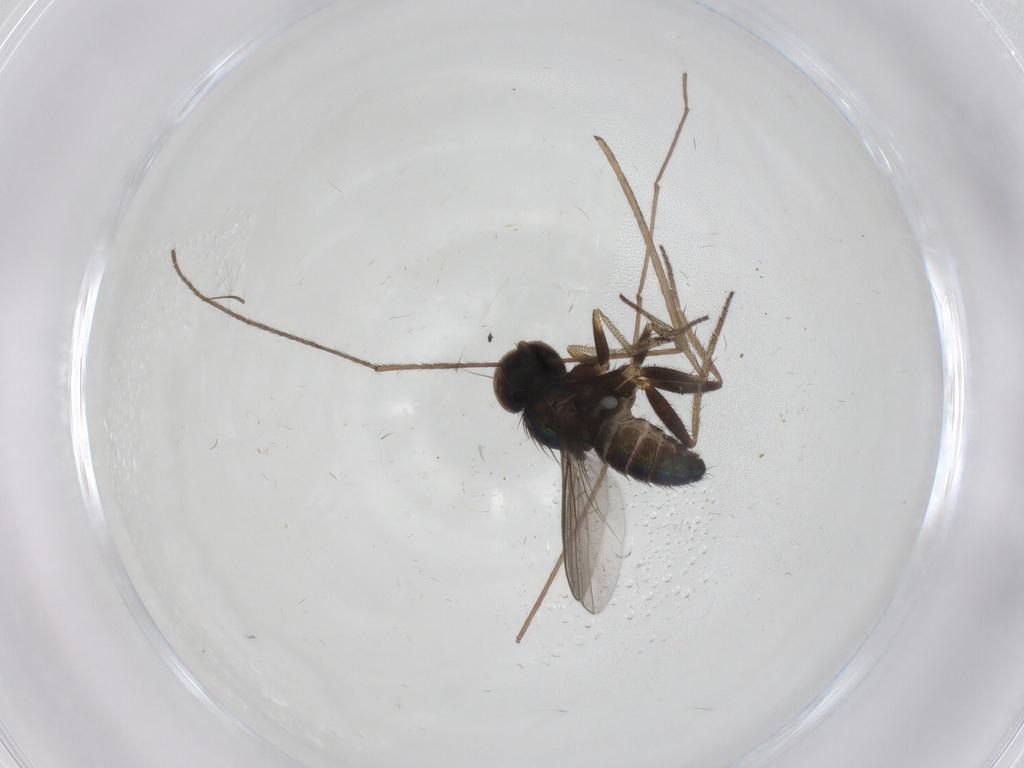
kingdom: Animalia
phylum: Arthropoda
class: Insecta
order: Diptera
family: Limoniidae
